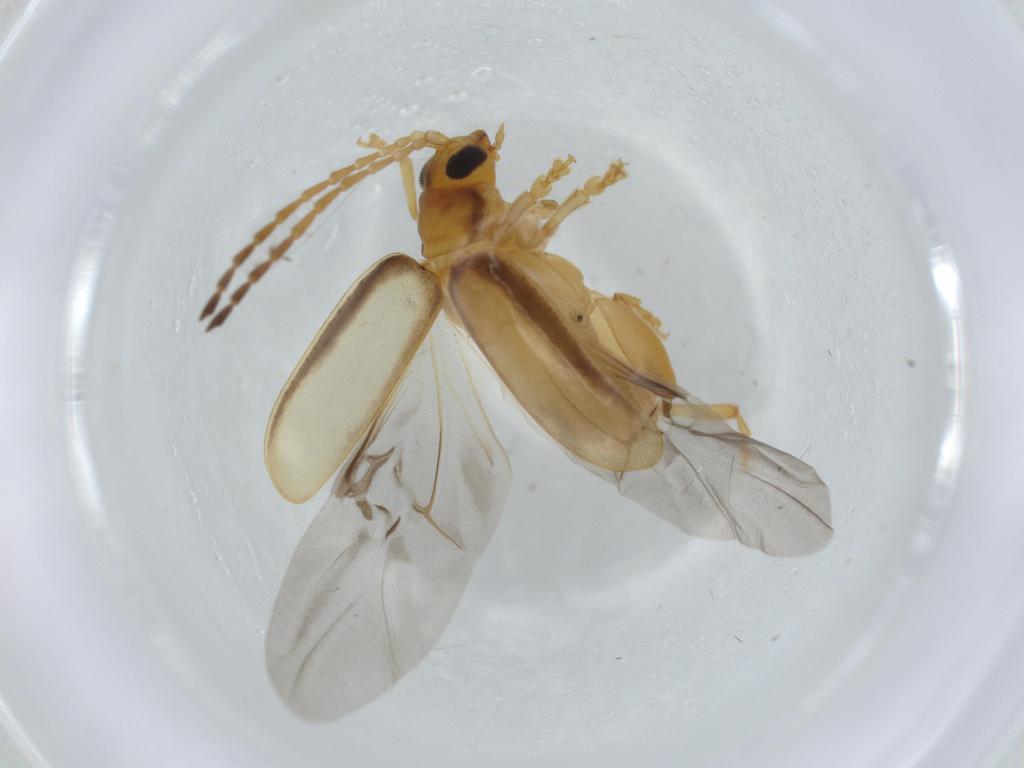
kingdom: Animalia
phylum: Arthropoda
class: Insecta
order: Coleoptera
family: Chrysomelidae
